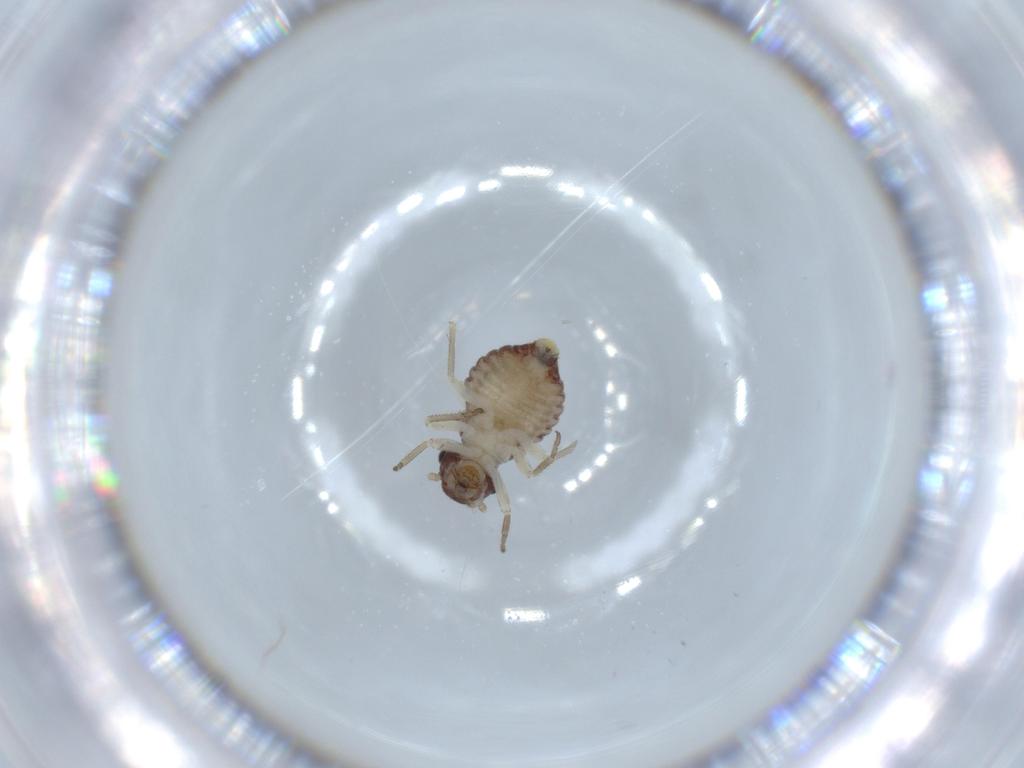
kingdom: Animalia
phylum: Arthropoda
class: Insecta
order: Psocodea
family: Myopsocidae
